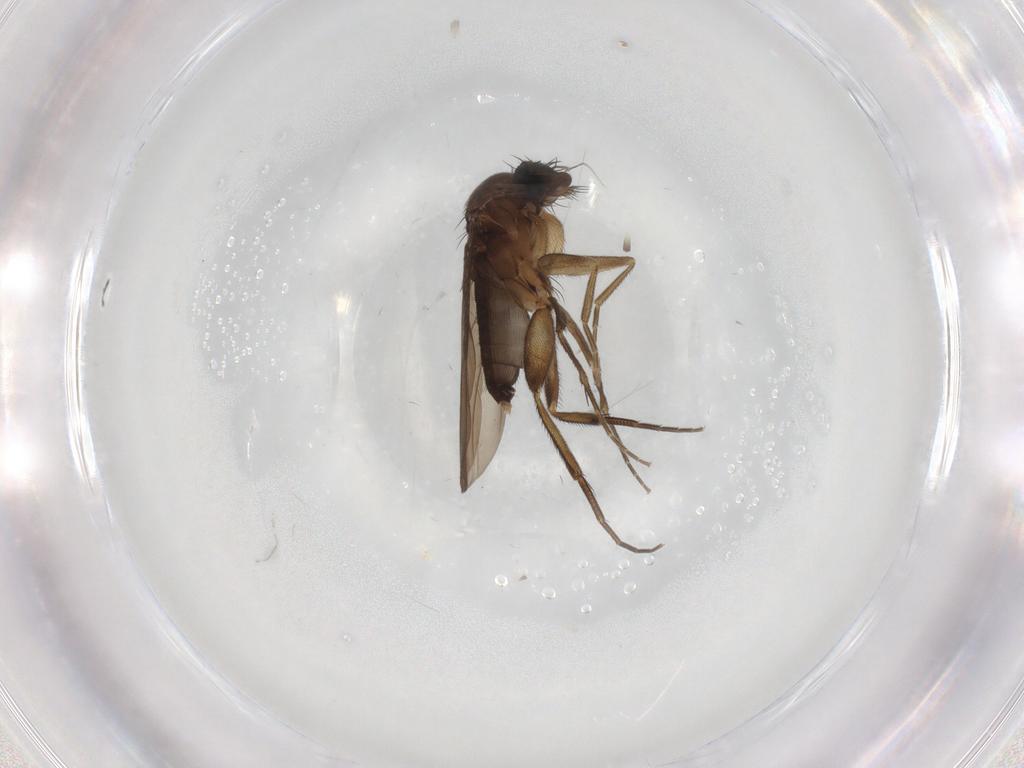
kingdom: Animalia
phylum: Arthropoda
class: Insecta
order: Diptera
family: Phoridae
